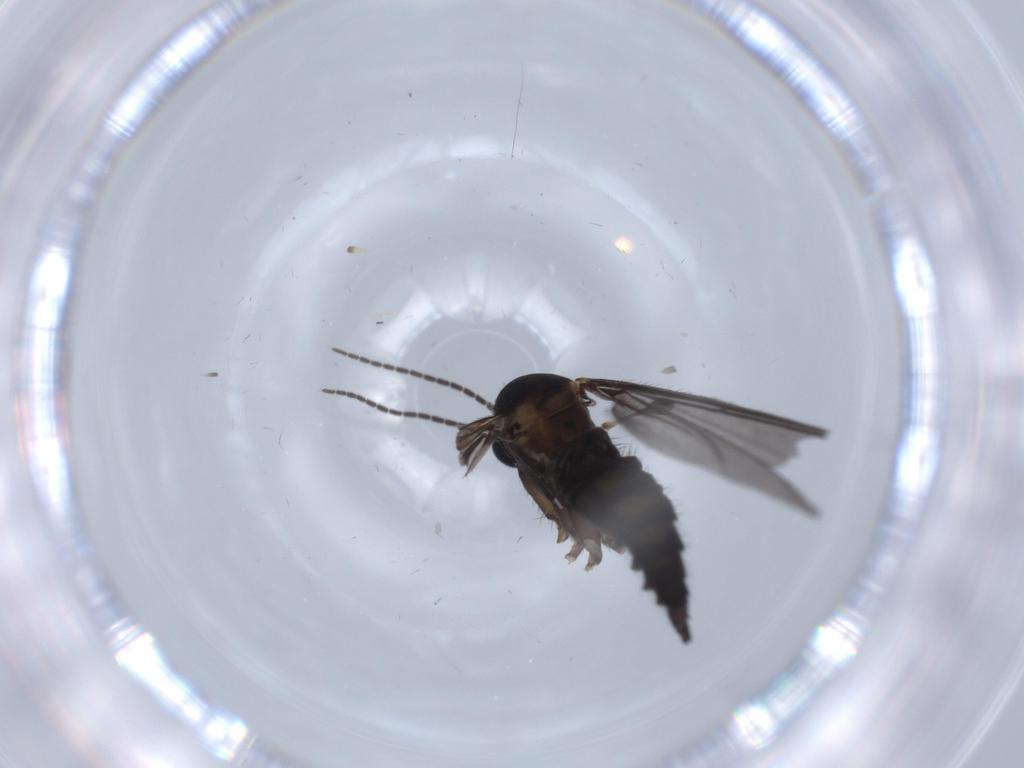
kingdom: Animalia
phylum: Arthropoda
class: Insecta
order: Diptera
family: Sciaridae
